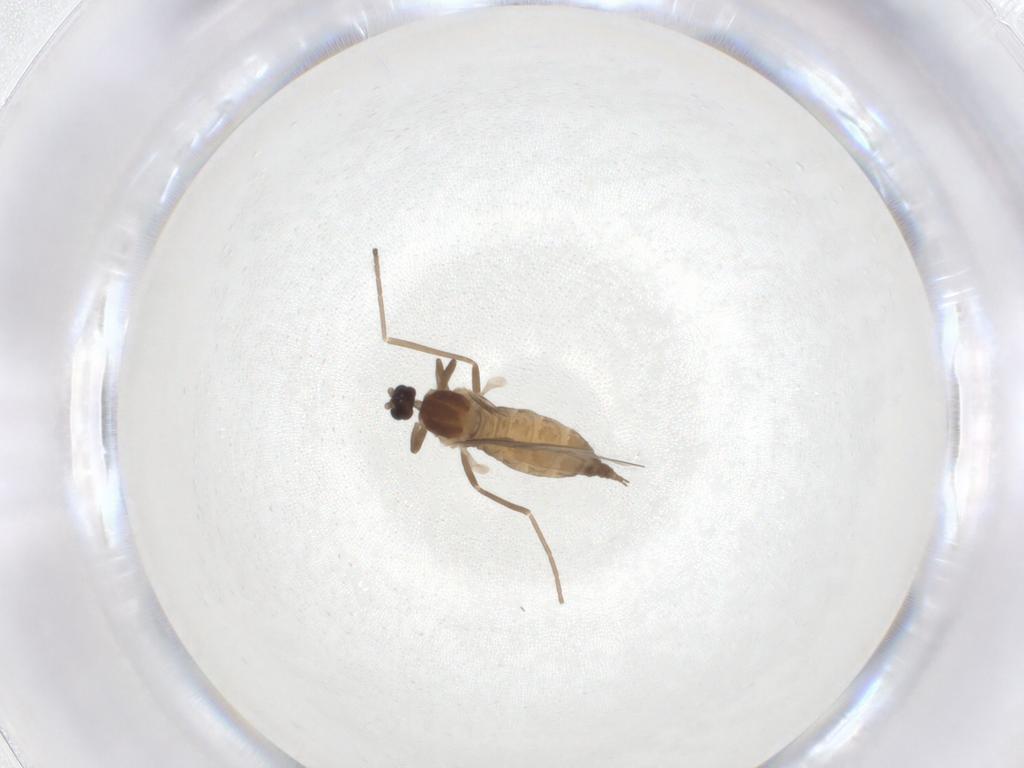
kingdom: Animalia
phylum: Arthropoda
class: Insecta
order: Diptera
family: Cecidomyiidae
